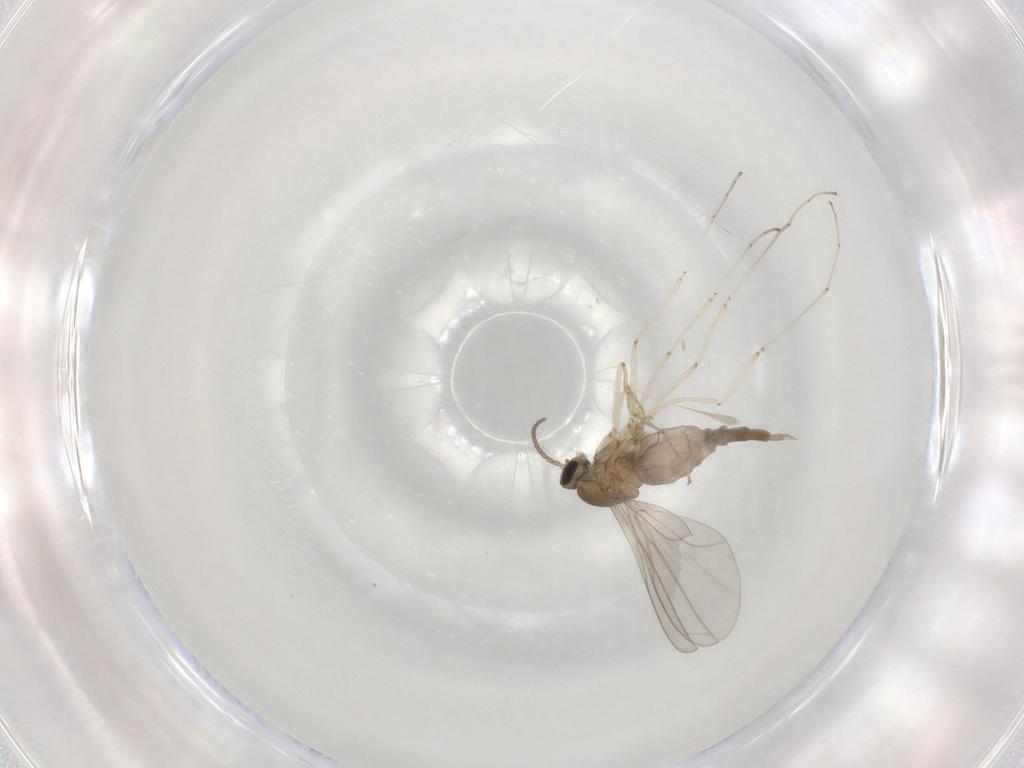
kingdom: Animalia
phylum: Arthropoda
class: Insecta
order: Diptera
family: Cecidomyiidae
